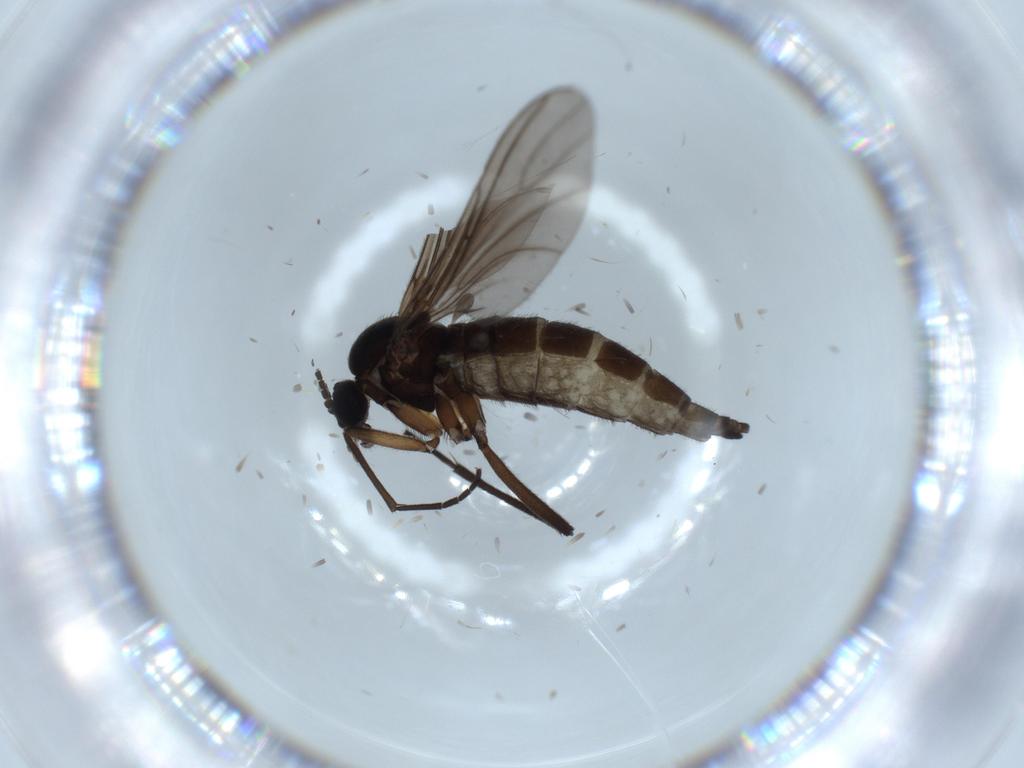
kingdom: Animalia
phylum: Arthropoda
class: Insecta
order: Diptera
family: Sciaridae
